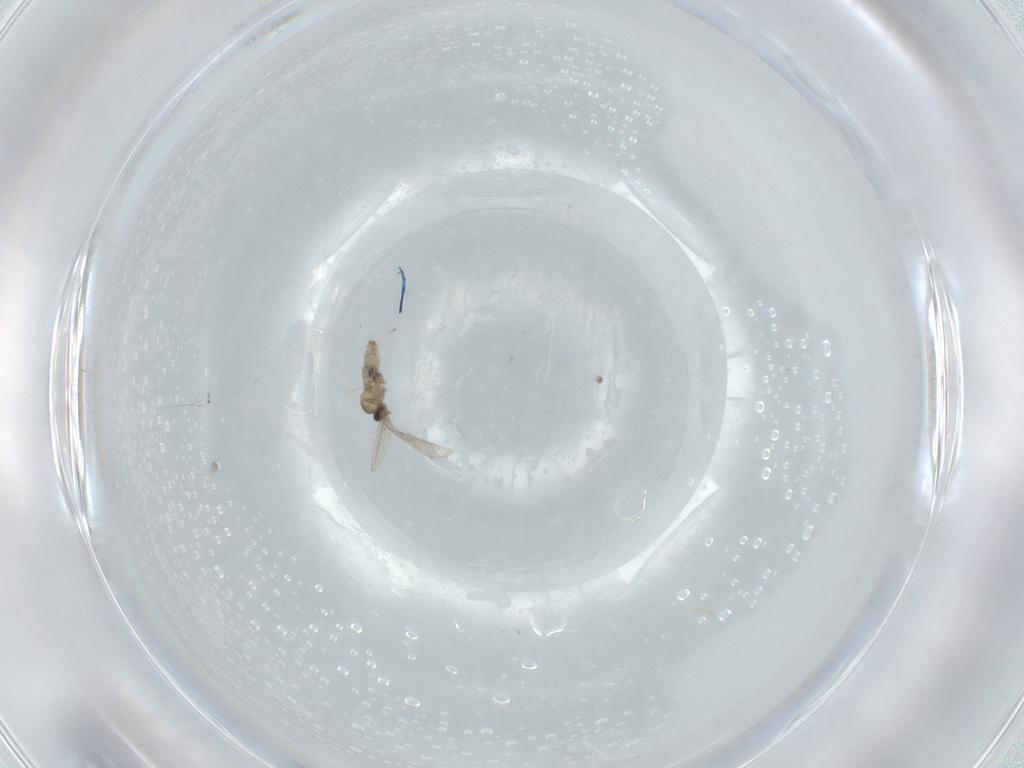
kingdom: Animalia
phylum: Arthropoda
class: Insecta
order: Diptera
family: Cecidomyiidae
